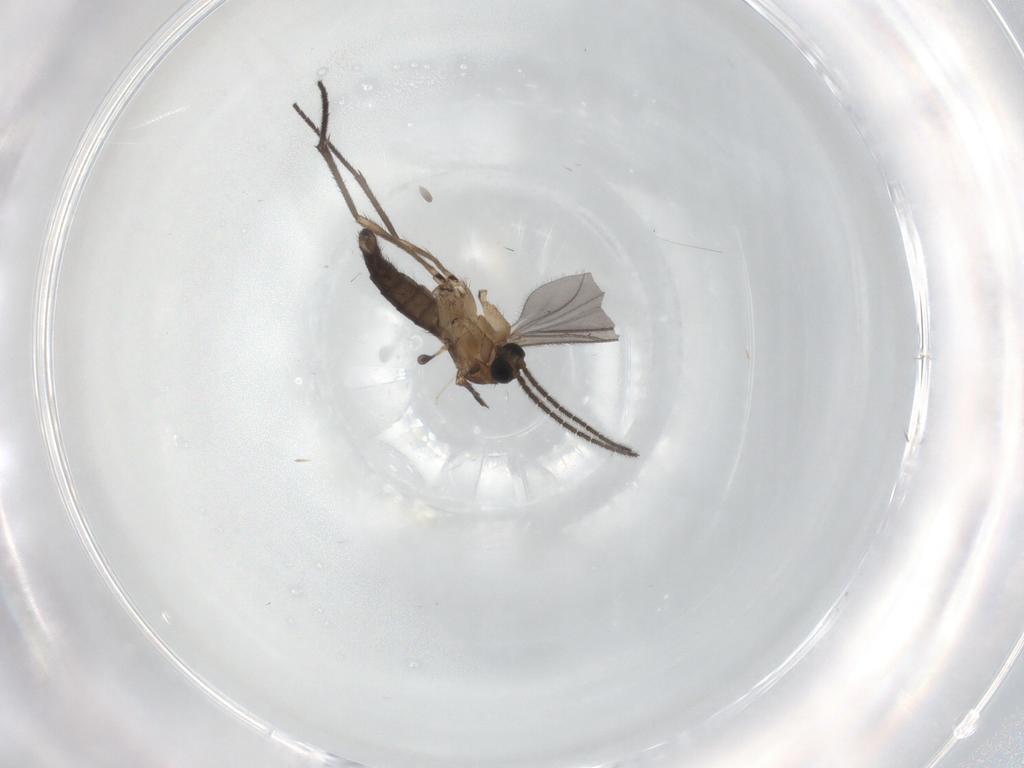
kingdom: Animalia
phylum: Arthropoda
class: Insecta
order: Diptera
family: Sciaridae
